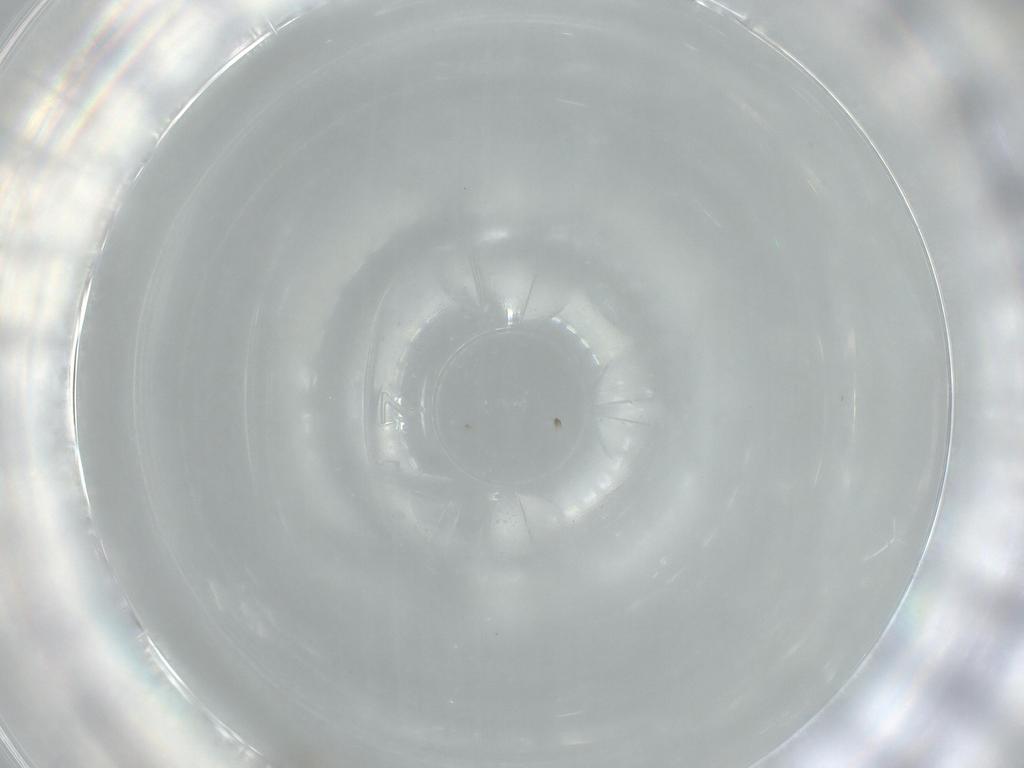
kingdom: Animalia
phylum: Arthropoda
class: Insecta
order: Diptera
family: Cecidomyiidae
